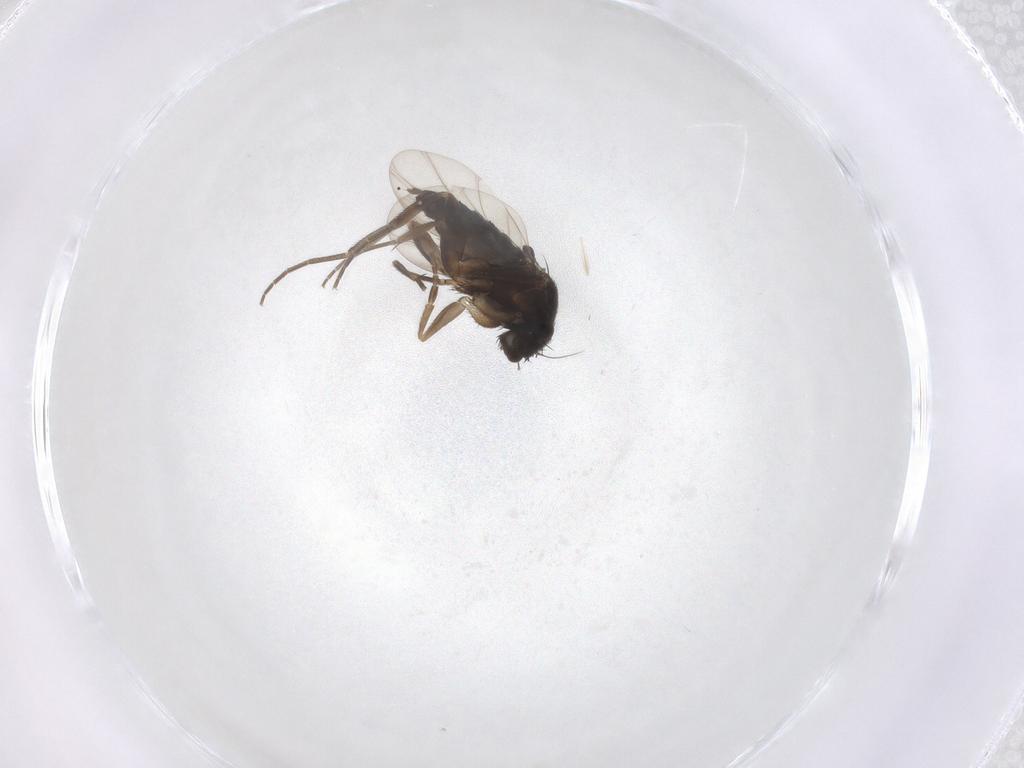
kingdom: Animalia
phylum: Arthropoda
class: Insecta
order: Diptera
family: Phoridae
